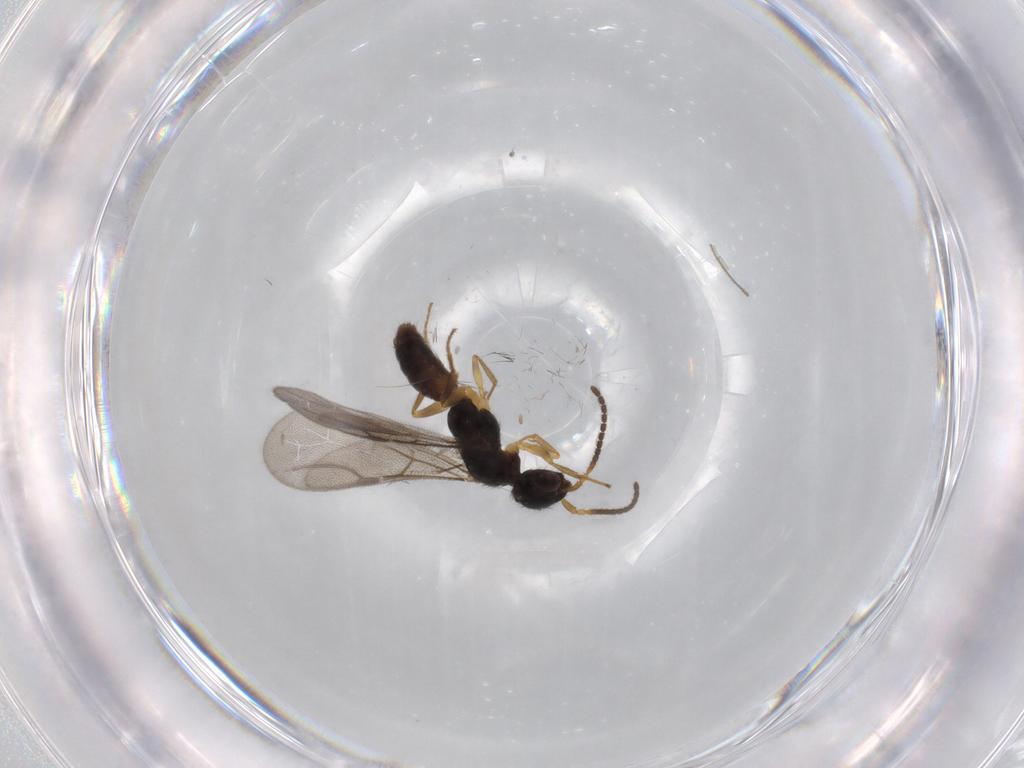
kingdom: Animalia
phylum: Arthropoda
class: Insecta
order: Hymenoptera
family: Bethylidae
